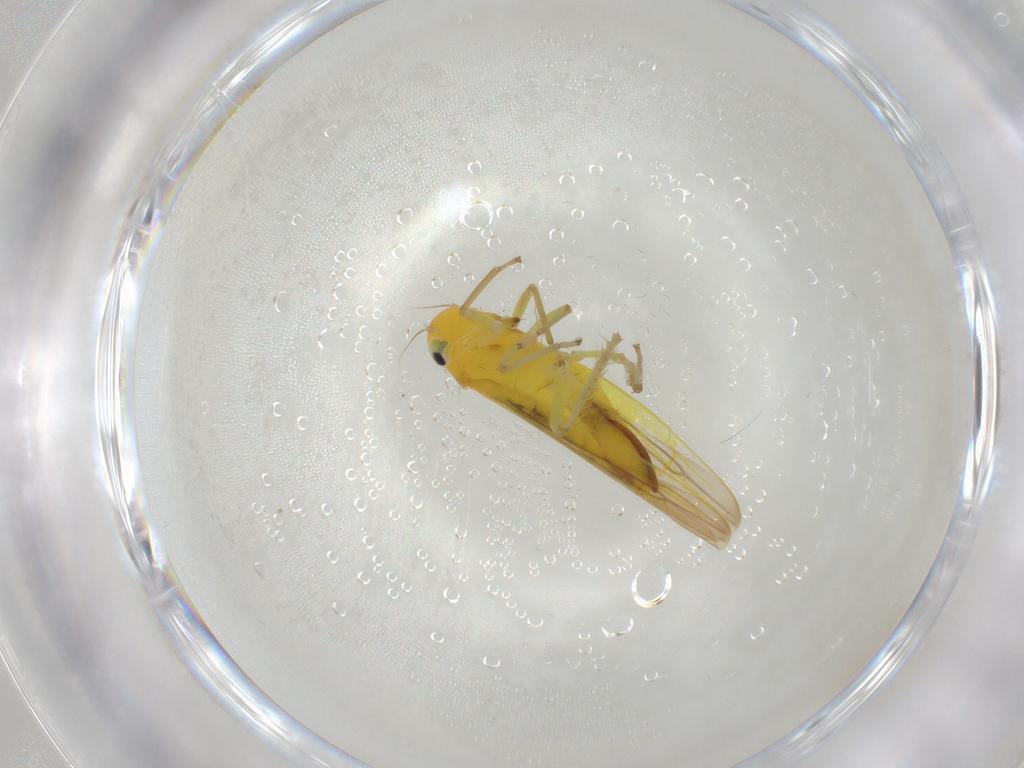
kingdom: Animalia
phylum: Arthropoda
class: Insecta
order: Hemiptera
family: Cicadellidae
